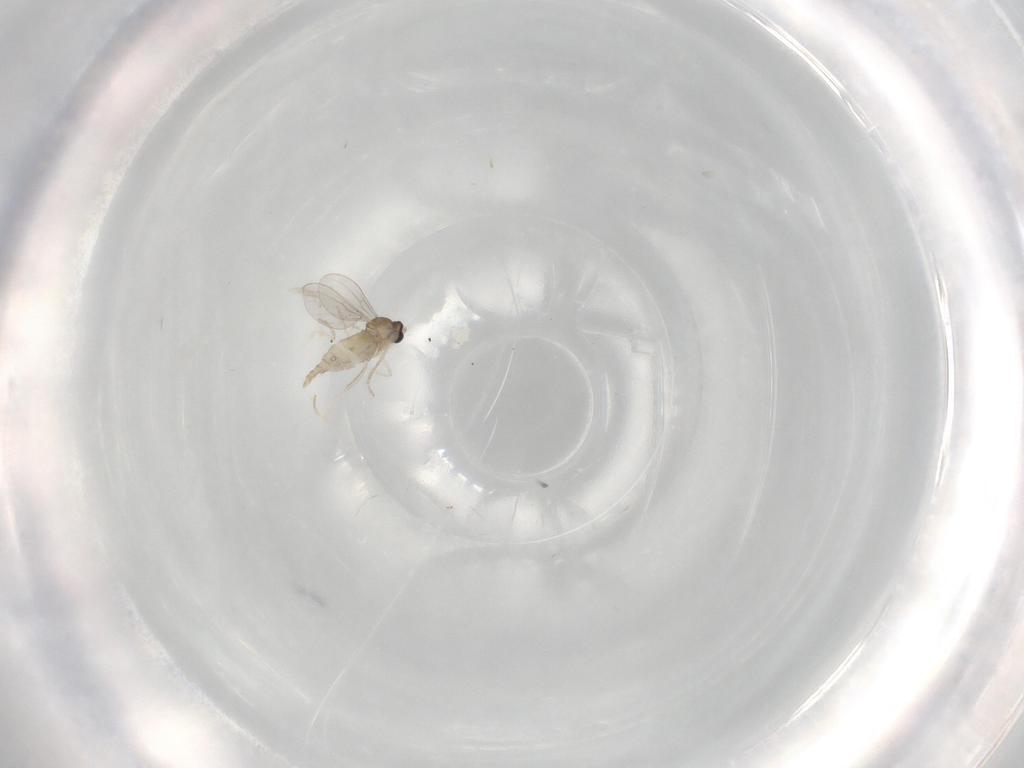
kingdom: Animalia
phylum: Arthropoda
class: Insecta
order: Diptera
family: Cecidomyiidae
